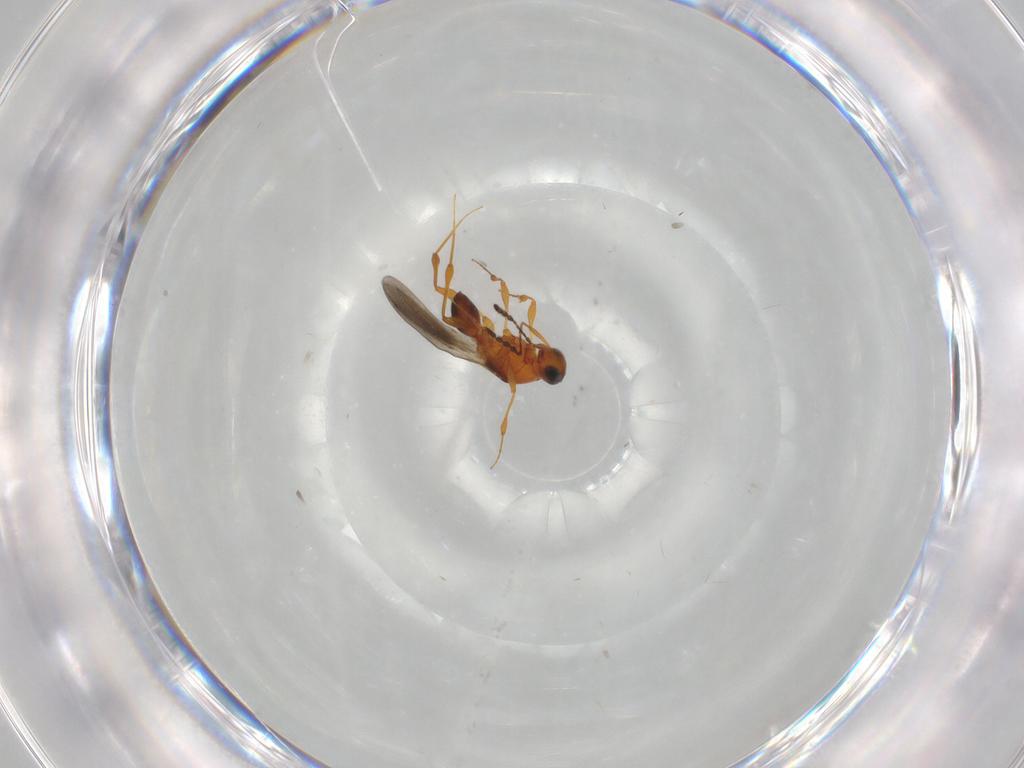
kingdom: Animalia
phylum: Arthropoda
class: Insecta
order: Hymenoptera
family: Platygastridae
